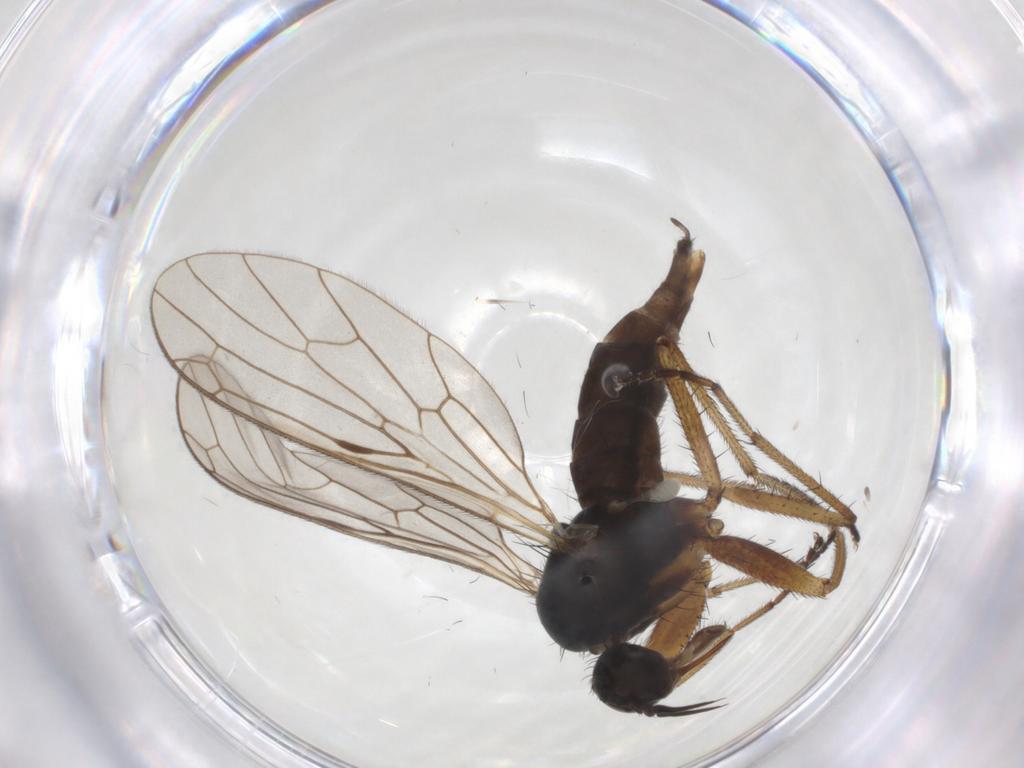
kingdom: Animalia
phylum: Arthropoda
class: Insecta
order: Diptera
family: Empididae
